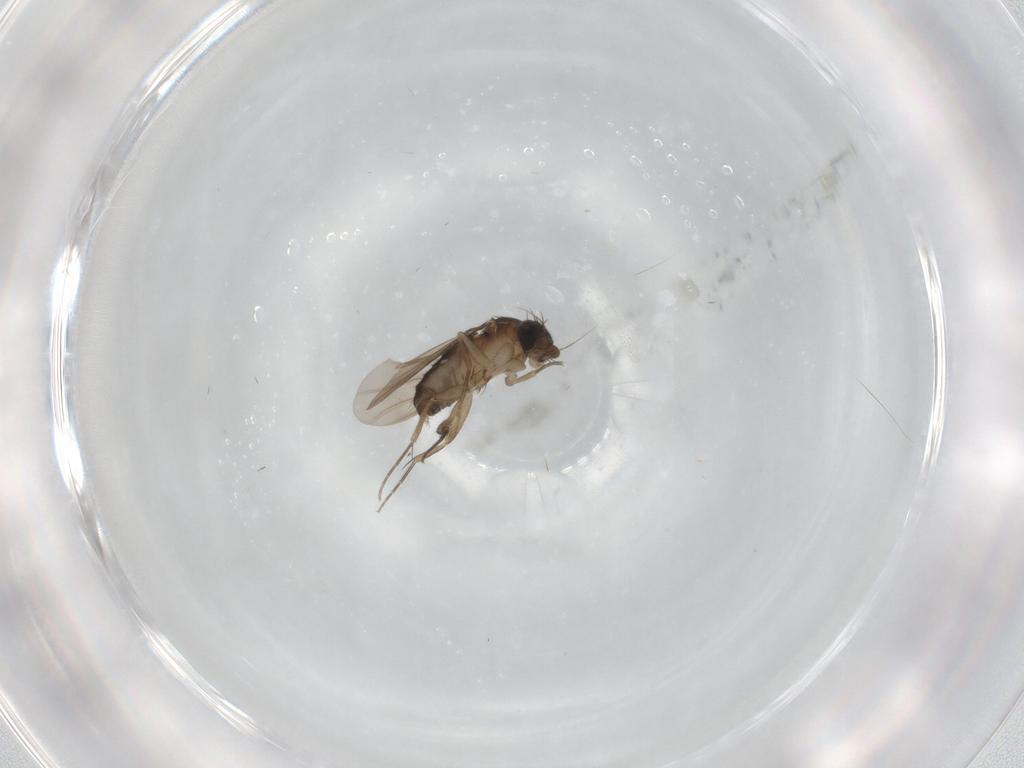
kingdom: Animalia
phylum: Arthropoda
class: Insecta
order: Diptera
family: Phoridae
